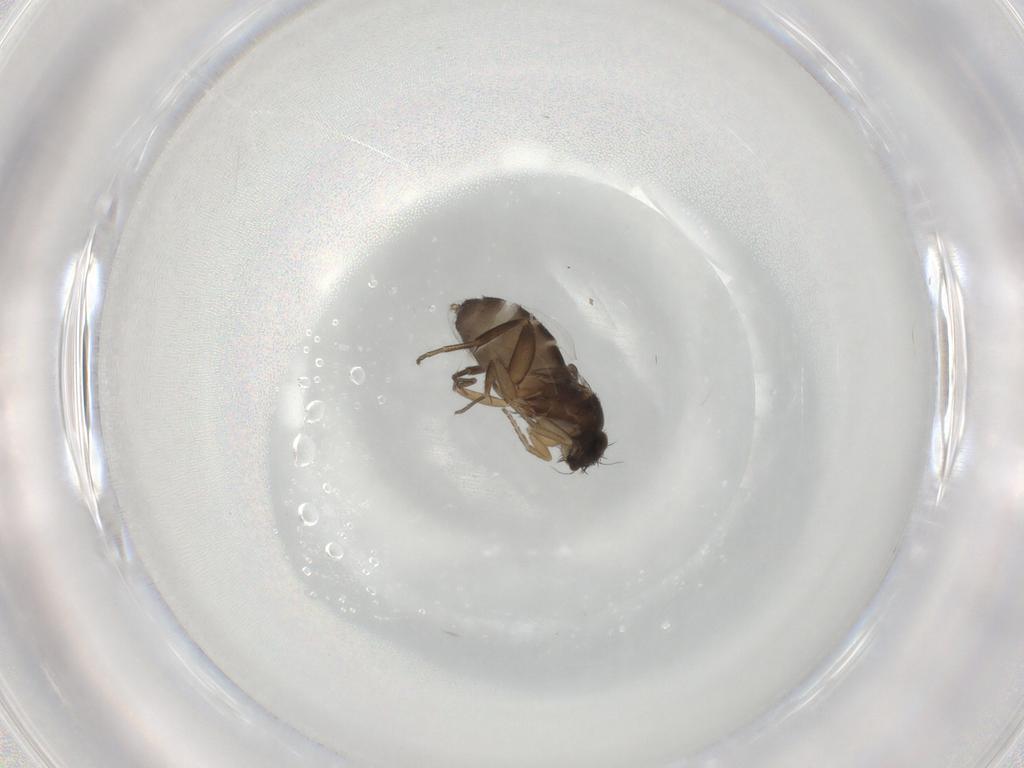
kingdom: Animalia
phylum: Arthropoda
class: Insecta
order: Diptera
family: Phoridae
